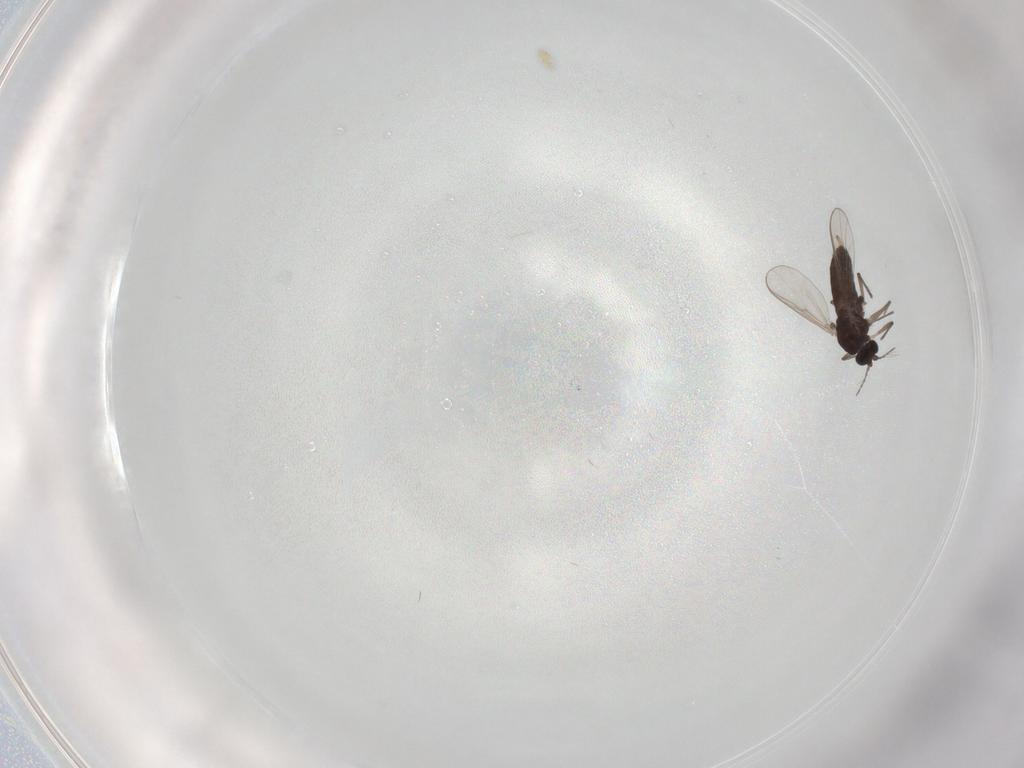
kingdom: Animalia
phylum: Arthropoda
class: Insecta
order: Diptera
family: Chironomidae
